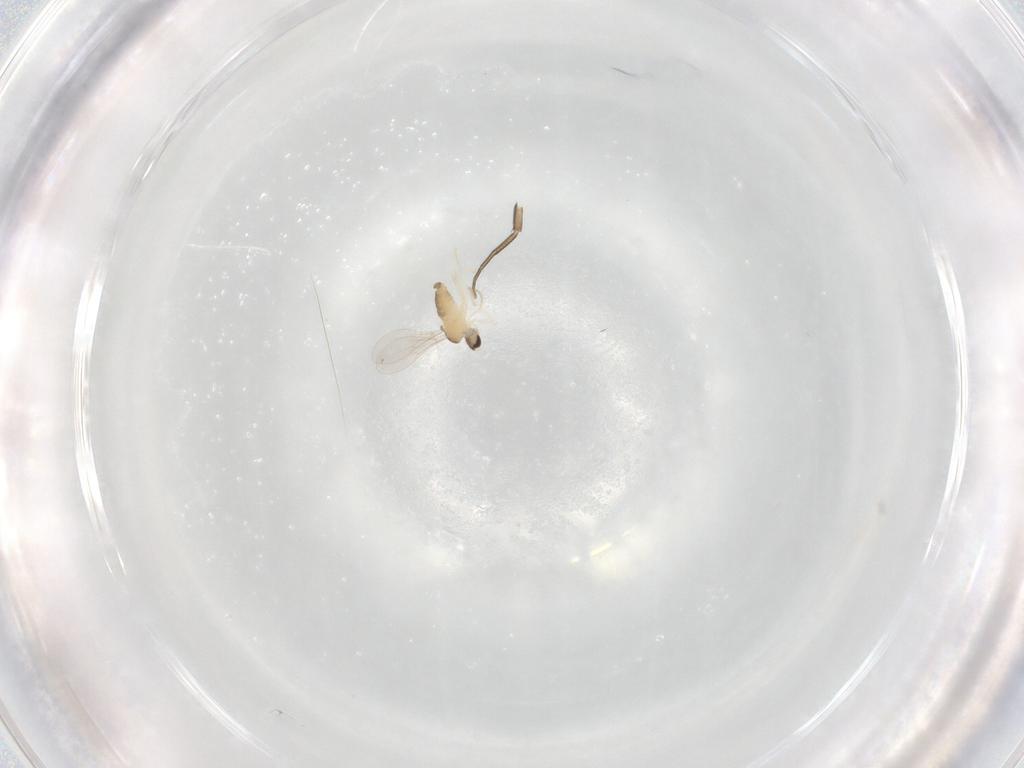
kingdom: Animalia
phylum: Arthropoda
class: Insecta
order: Diptera
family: Cecidomyiidae
